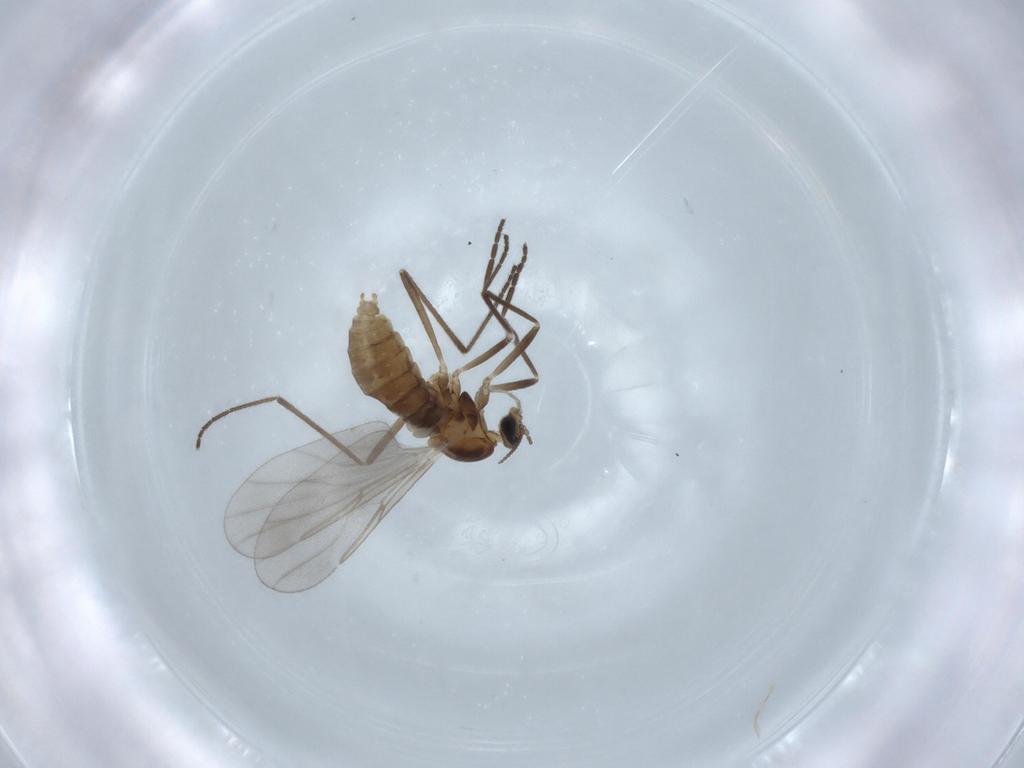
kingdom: Animalia
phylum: Arthropoda
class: Insecta
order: Diptera
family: Cecidomyiidae
